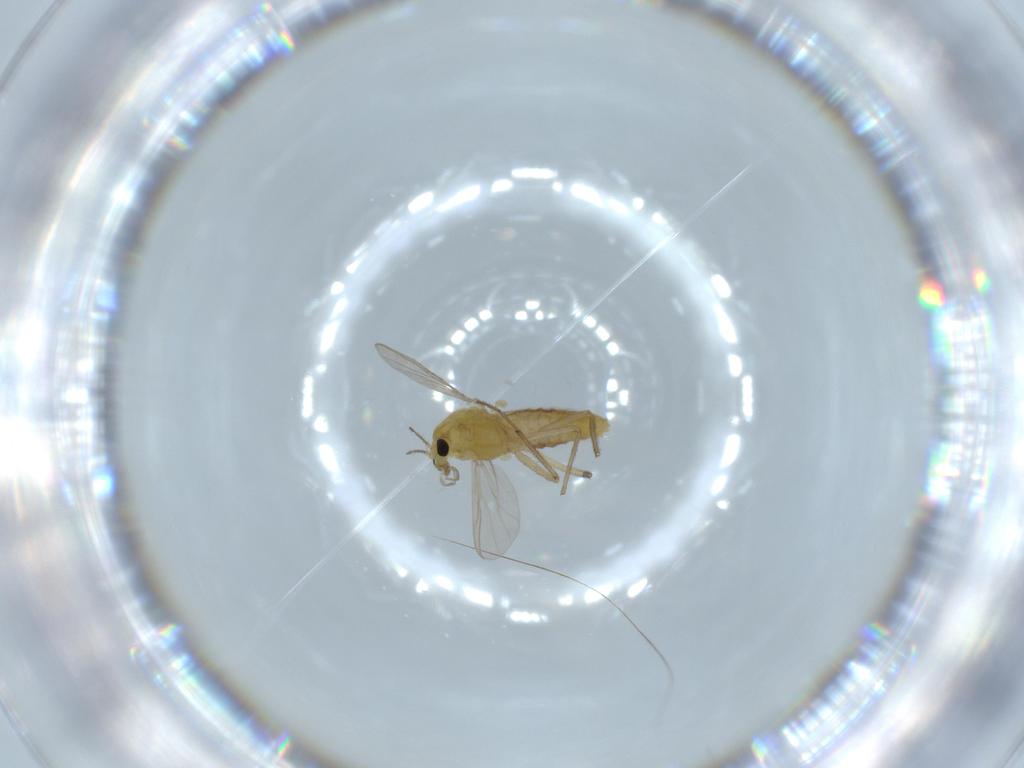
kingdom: Animalia
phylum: Arthropoda
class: Insecta
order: Diptera
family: Chironomidae
